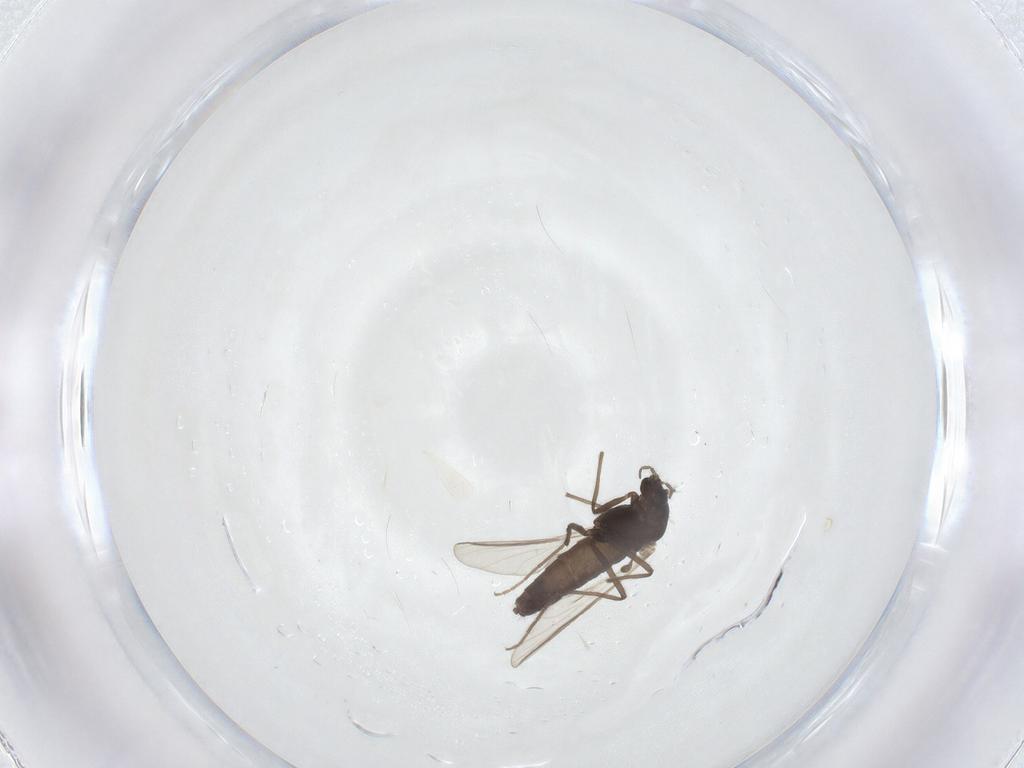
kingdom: Animalia
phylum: Arthropoda
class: Insecta
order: Diptera
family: Chironomidae
